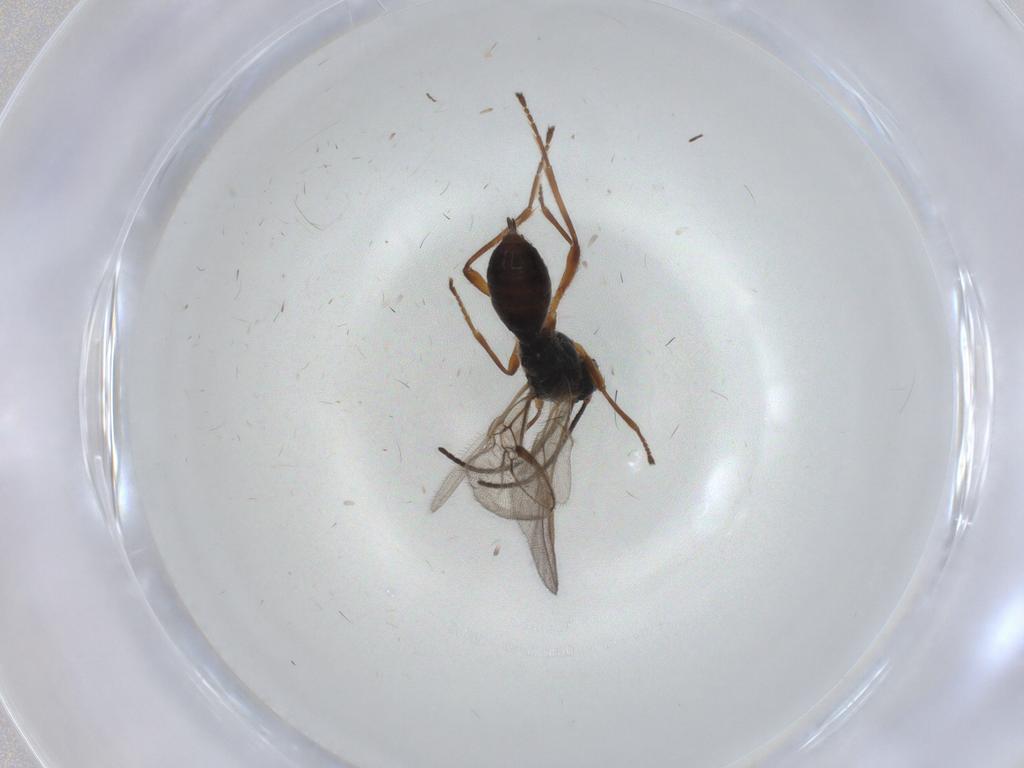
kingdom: Animalia
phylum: Arthropoda
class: Insecta
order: Hymenoptera
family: Braconidae
